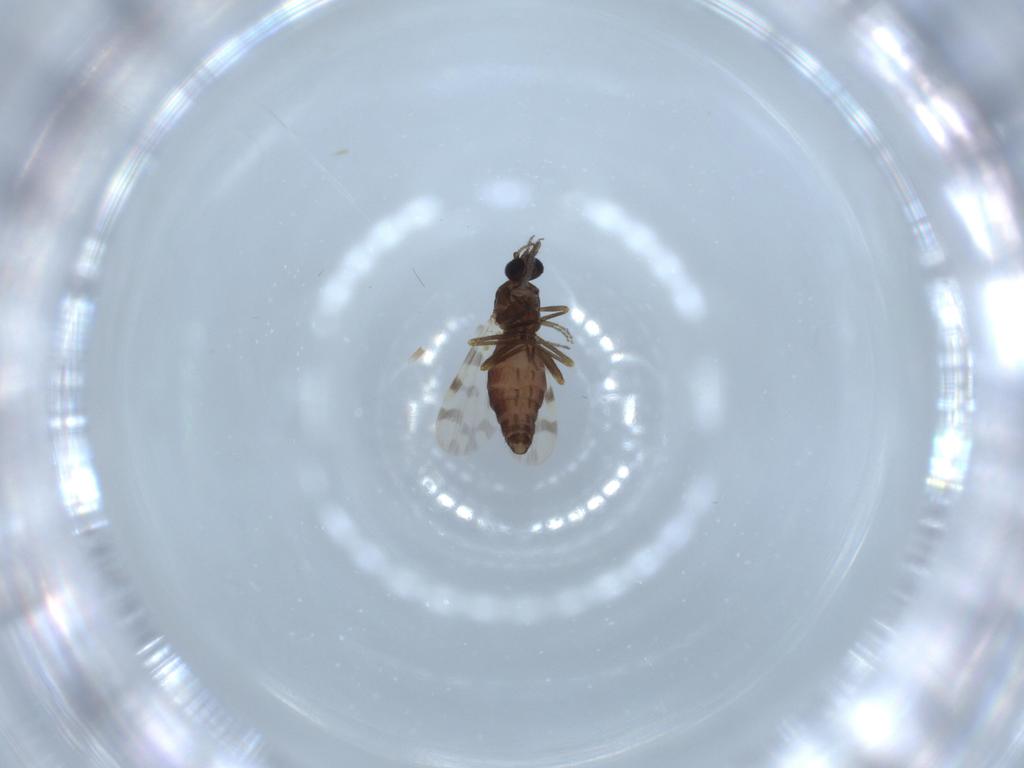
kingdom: Animalia
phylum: Arthropoda
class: Insecta
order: Diptera
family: Ceratopogonidae
